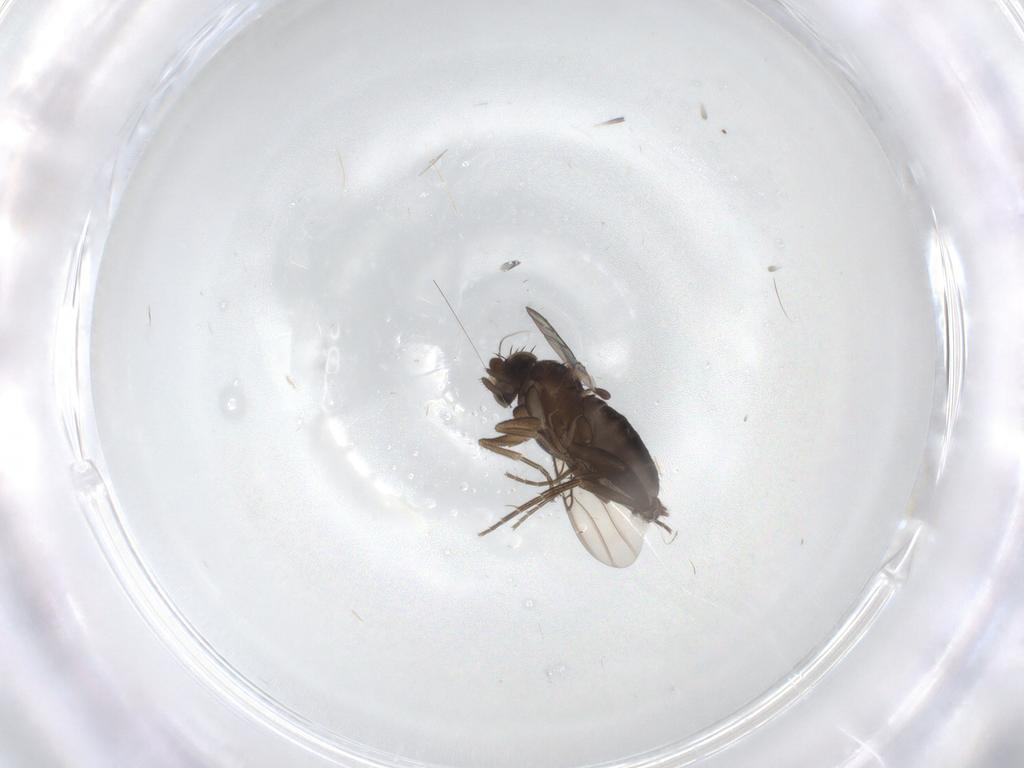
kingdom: Animalia
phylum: Arthropoda
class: Insecta
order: Diptera
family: Phoridae
